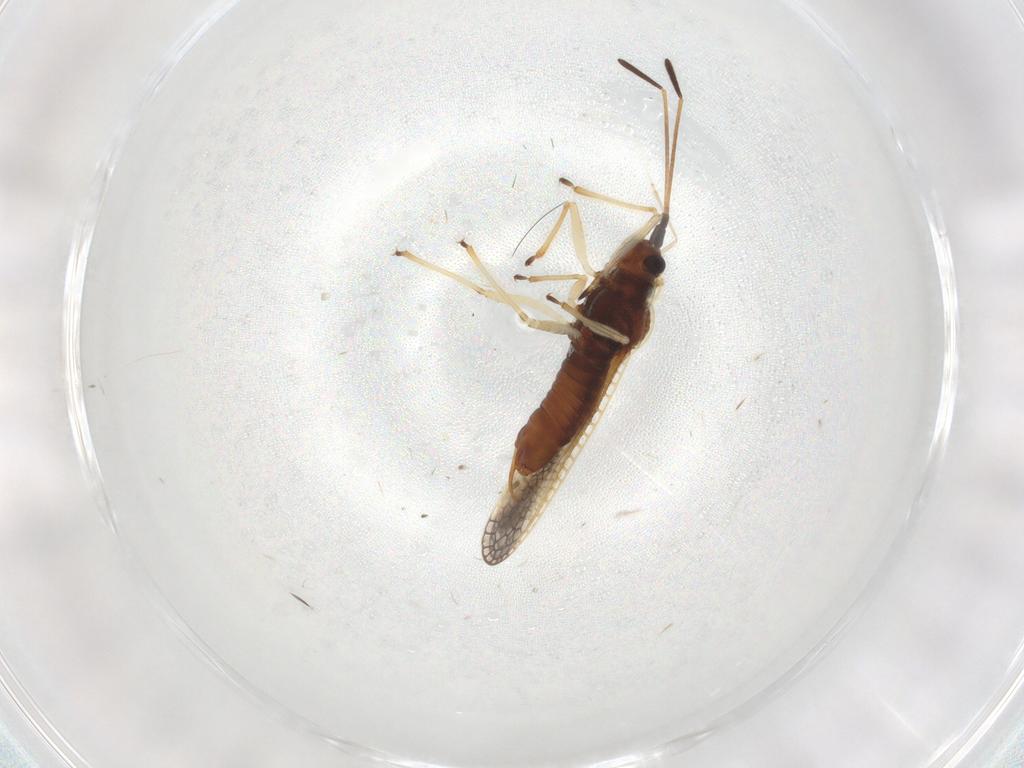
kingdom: Animalia
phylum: Arthropoda
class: Insecta
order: Hemiptera
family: Tingidae
